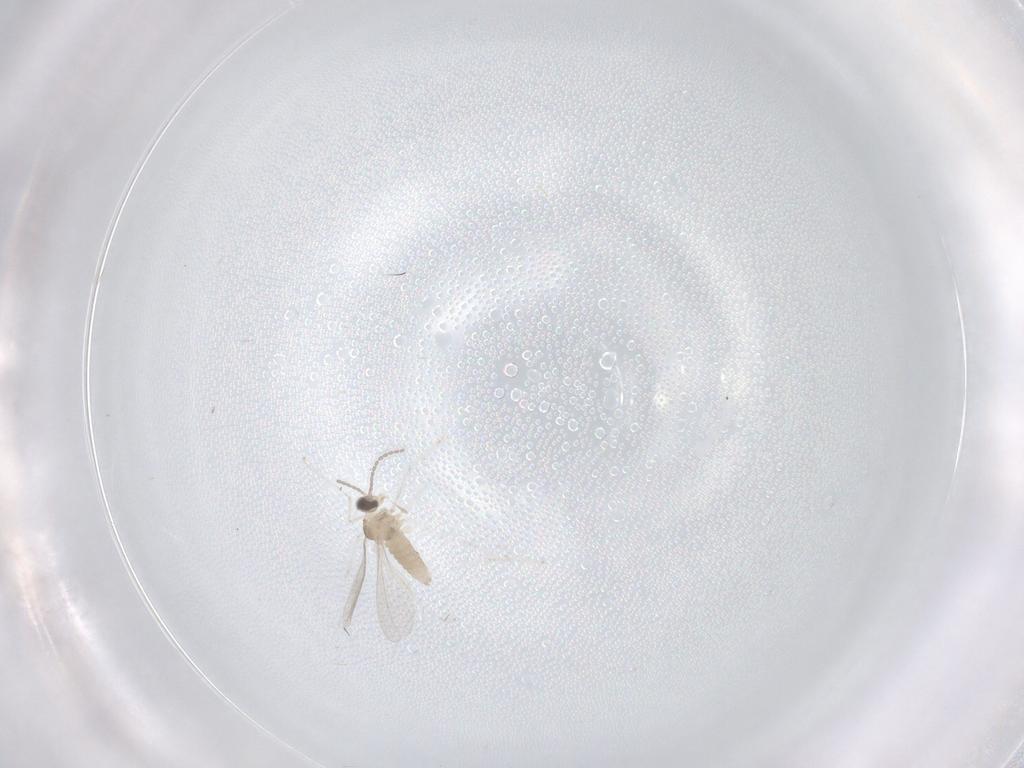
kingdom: Animalia
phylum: Arthropoda
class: Insecta
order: Diptera
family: Cecidomyiidae
